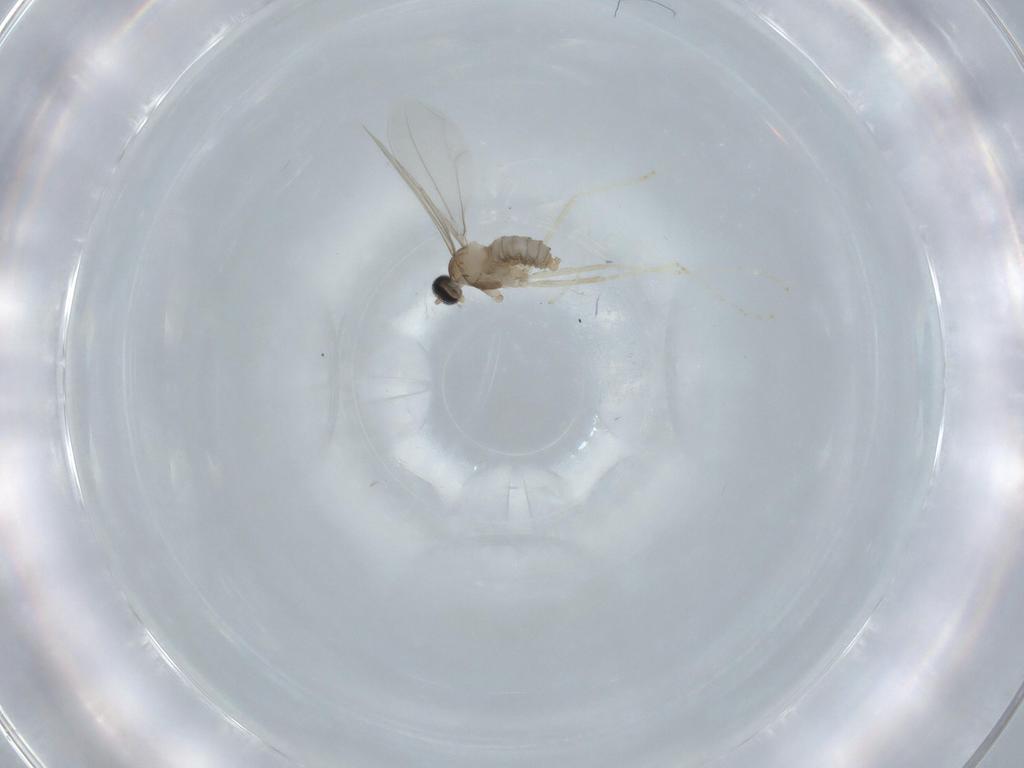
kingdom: Animalia
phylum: Arthropoda
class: Insecta
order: Diptera
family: Cecidomyiidae
